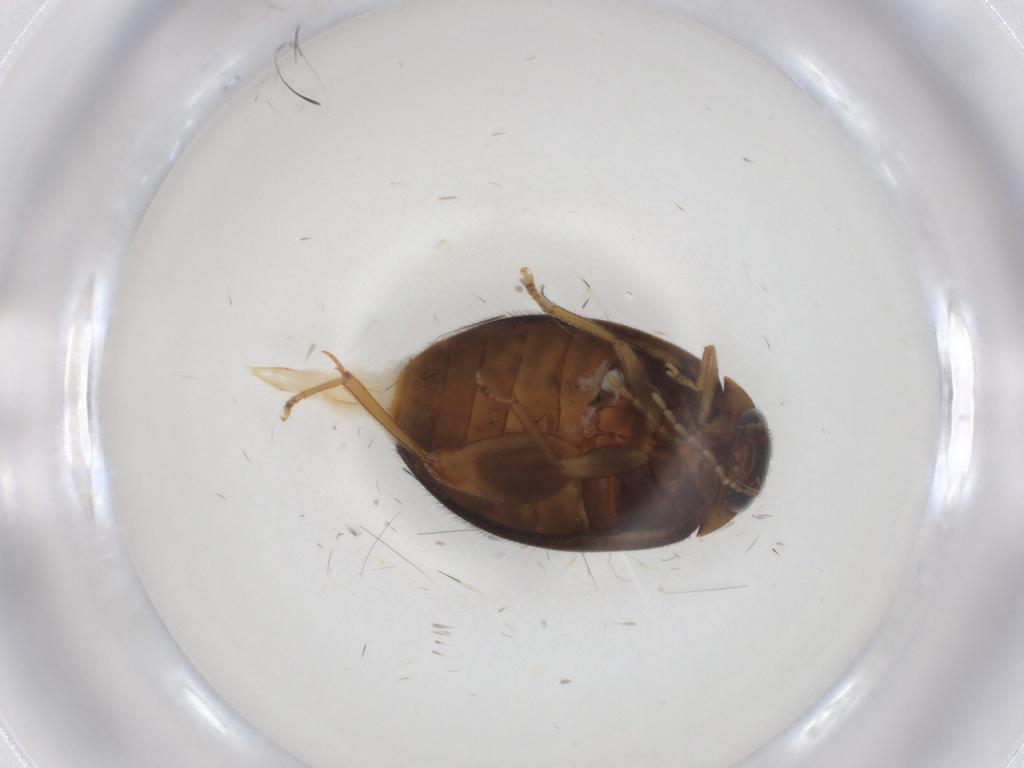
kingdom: Animalia
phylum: Arthropoda
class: Insecta
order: Coleoptera
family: Scirtidae
